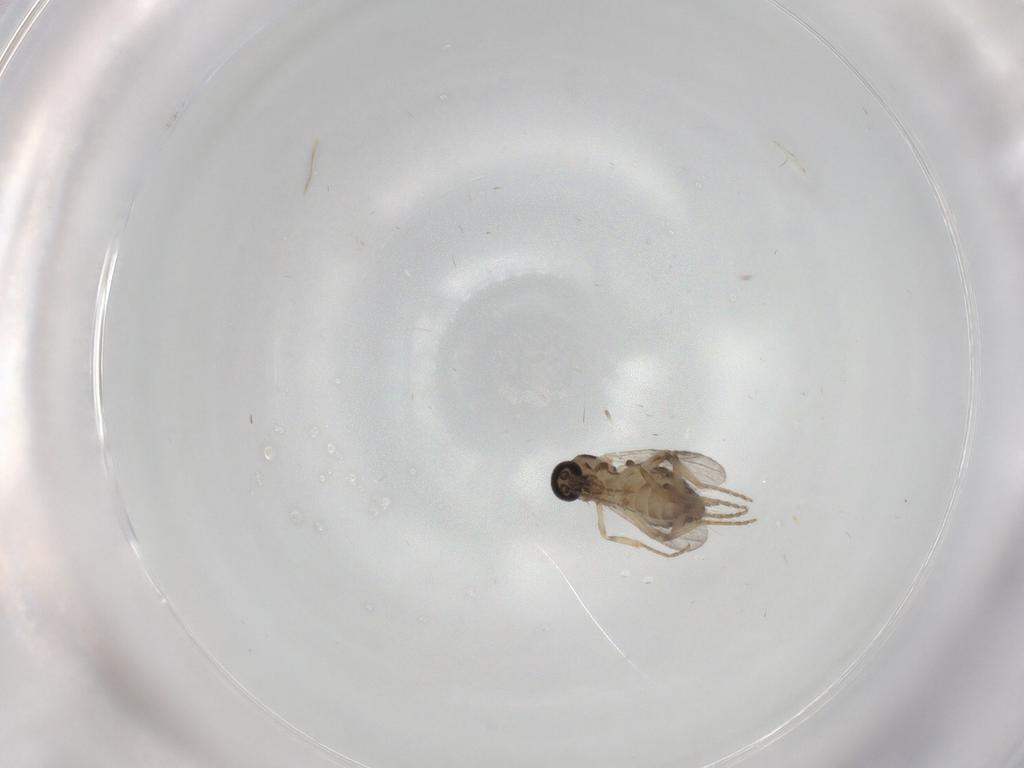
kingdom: Animalia
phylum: Arthropoda
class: Insecta
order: Diptera
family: Ceratopogonidae
